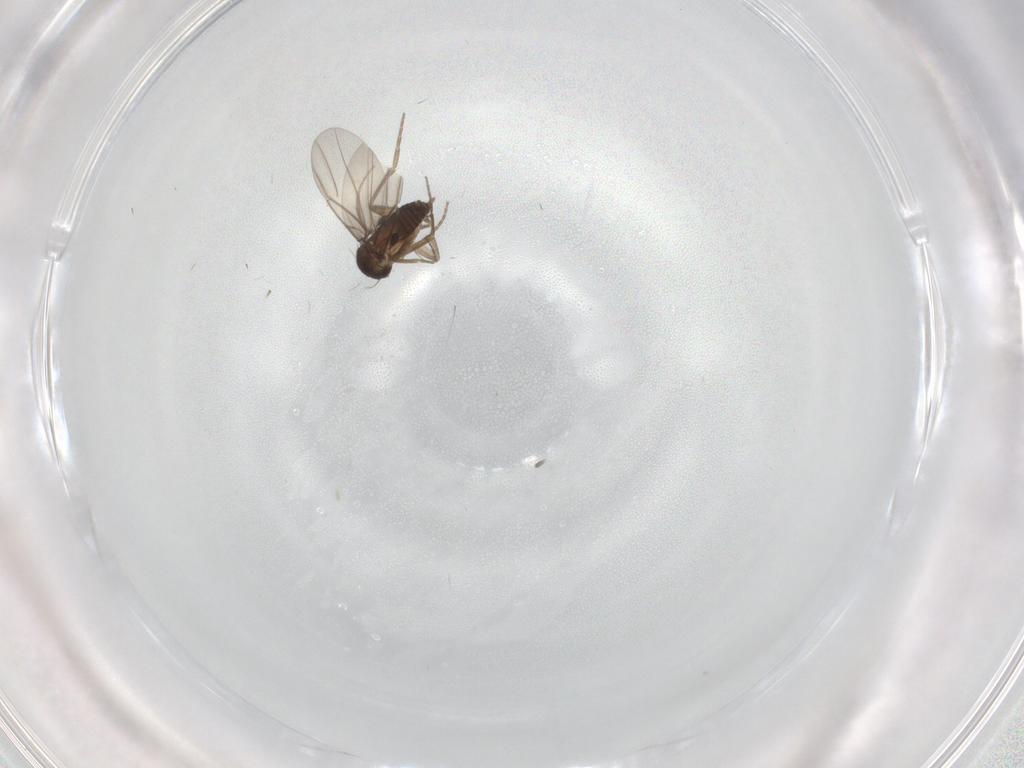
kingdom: Animalia
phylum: Arthropoda
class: Insecta
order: Diptera
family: Phoridae
